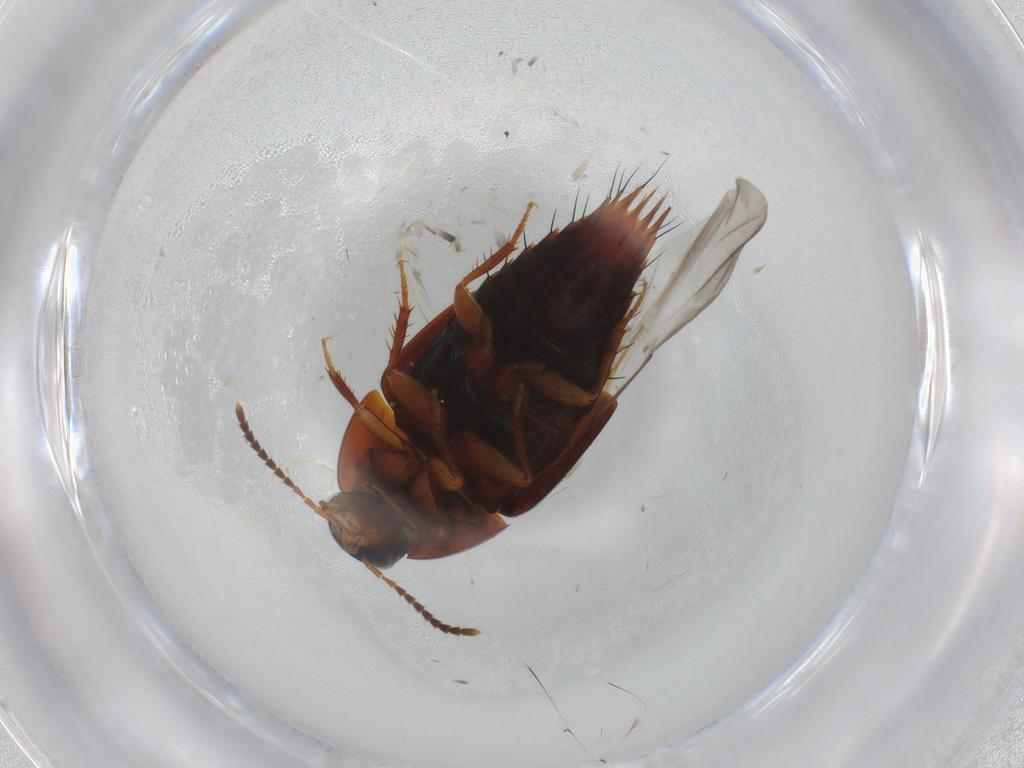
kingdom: Animalia
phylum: Arthropoda
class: Insecta
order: Coleoptera
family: Staphylinidae
